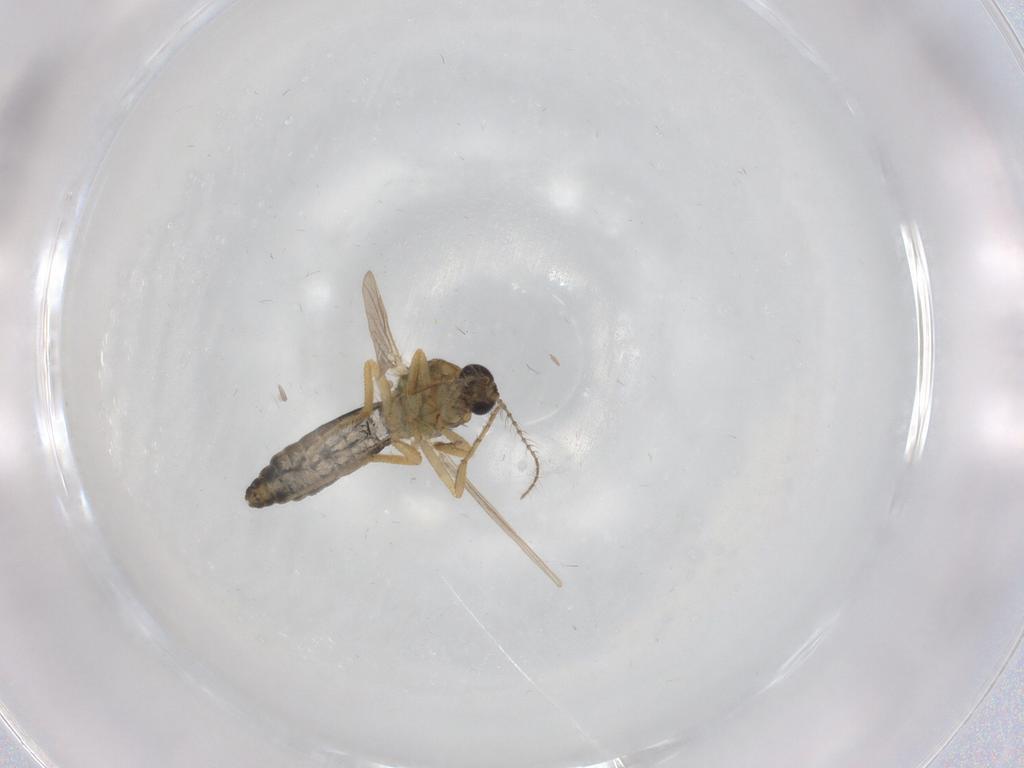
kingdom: Animalia
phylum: Arthropoda
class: Insecta
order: Diptera
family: Ceratopogonidae
